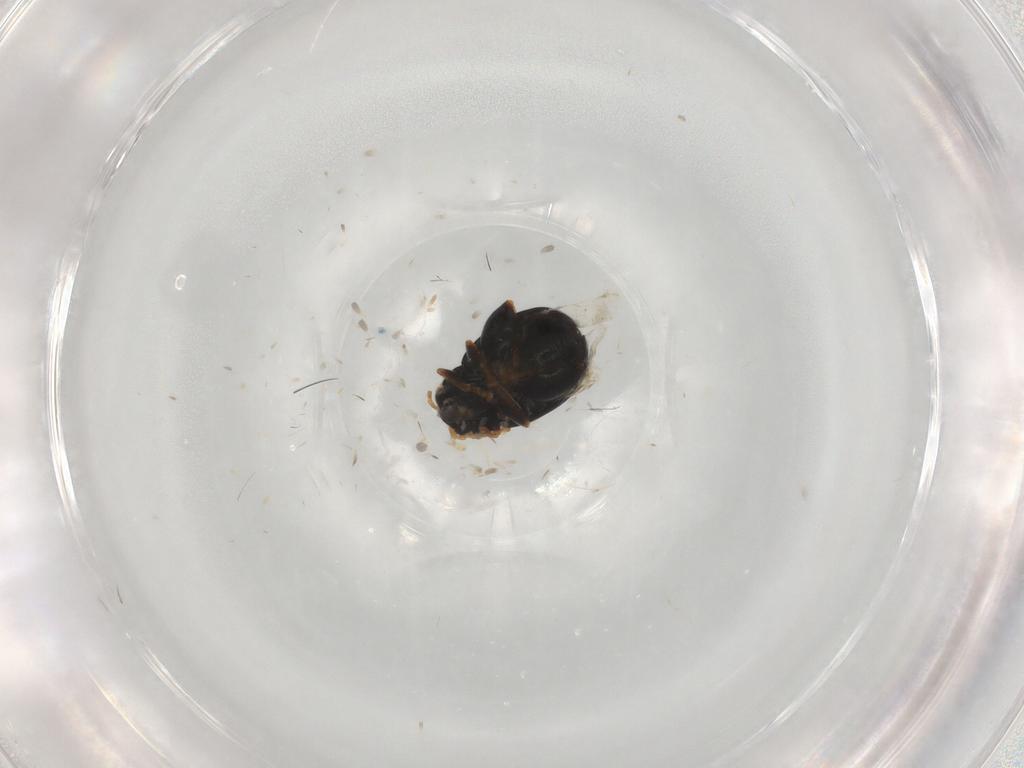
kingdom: Animalia
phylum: Arthropoda
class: Insecta
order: Coleoptera
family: Chrysomelidae
